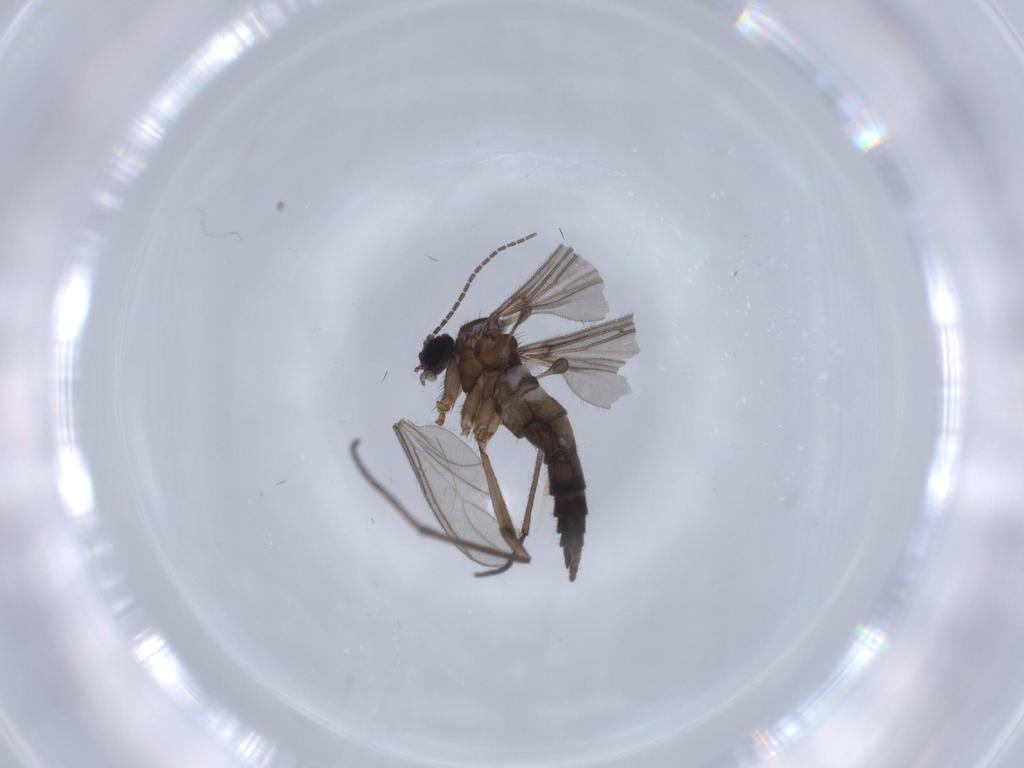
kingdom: Animalia
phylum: Arthropoda
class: Insecta
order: Diptera
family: Sciaridae
